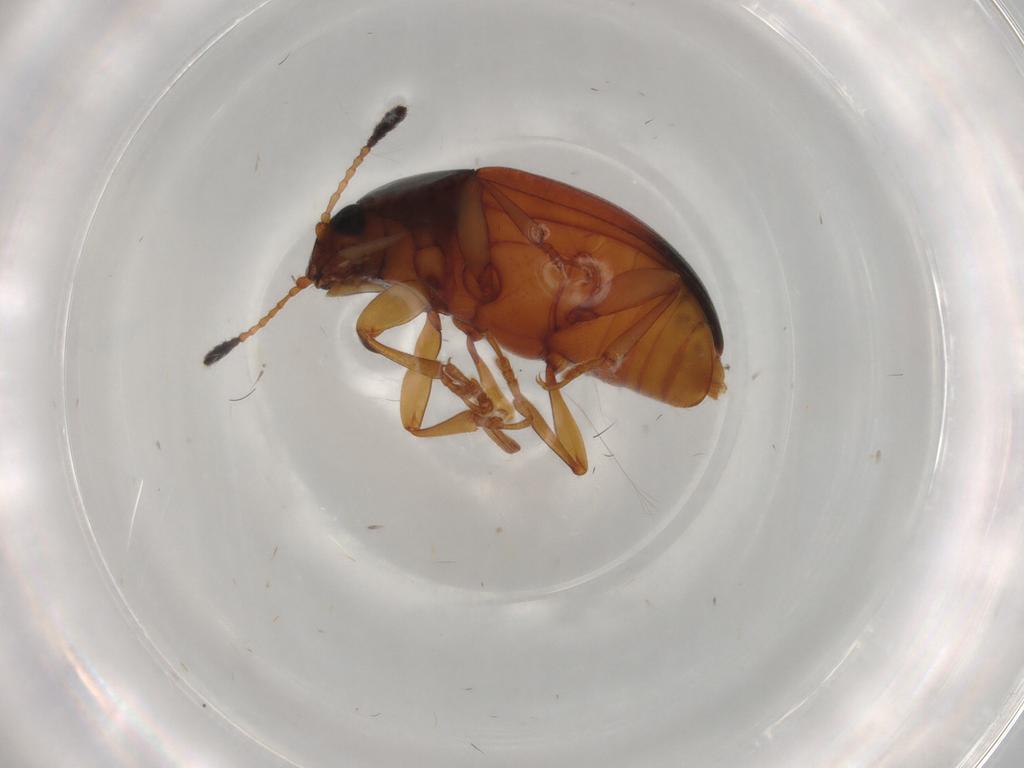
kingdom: Animalia
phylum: Arthropoda
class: Insecta
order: Coleoptera
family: Erotylidae
